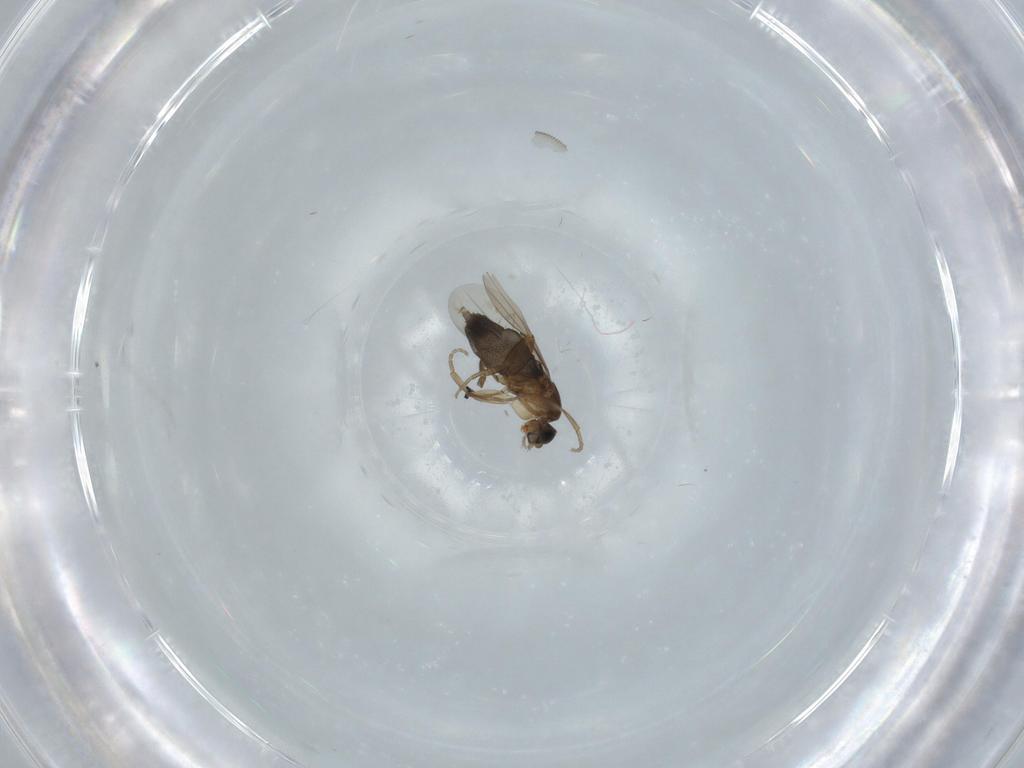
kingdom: Animalia
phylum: Arthropoda
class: Insecta
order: Diptera
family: Phoridae
